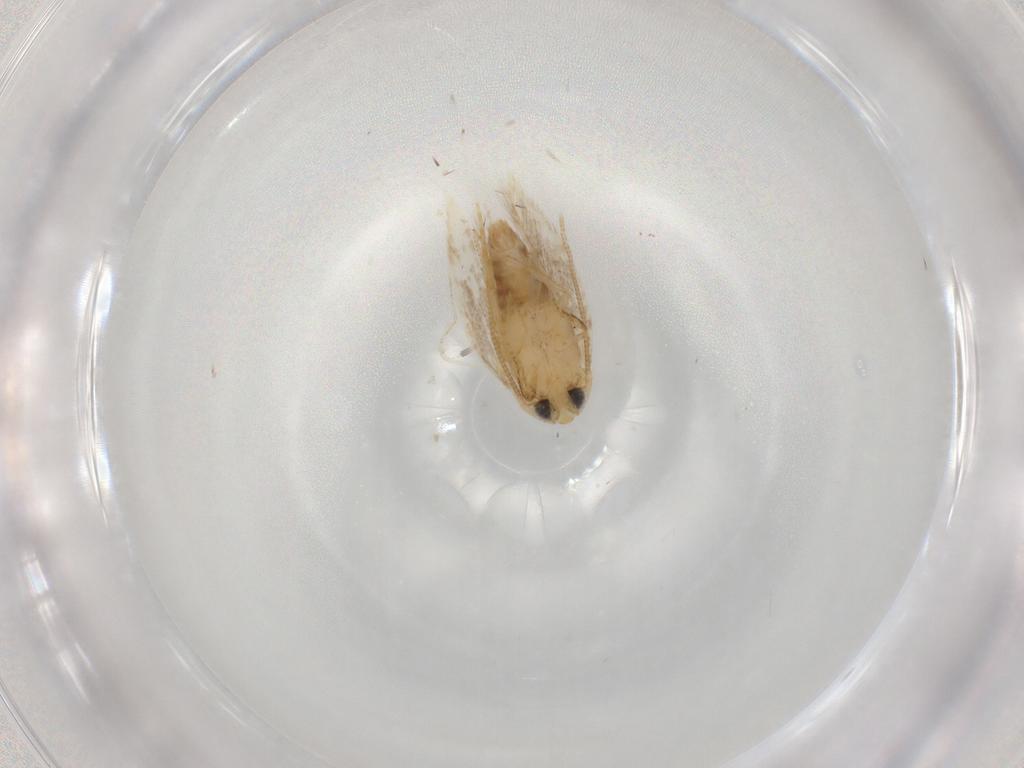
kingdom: Animalia
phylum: Arthropoda
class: Insecta
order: Lepidoptera
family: Opostegidae
